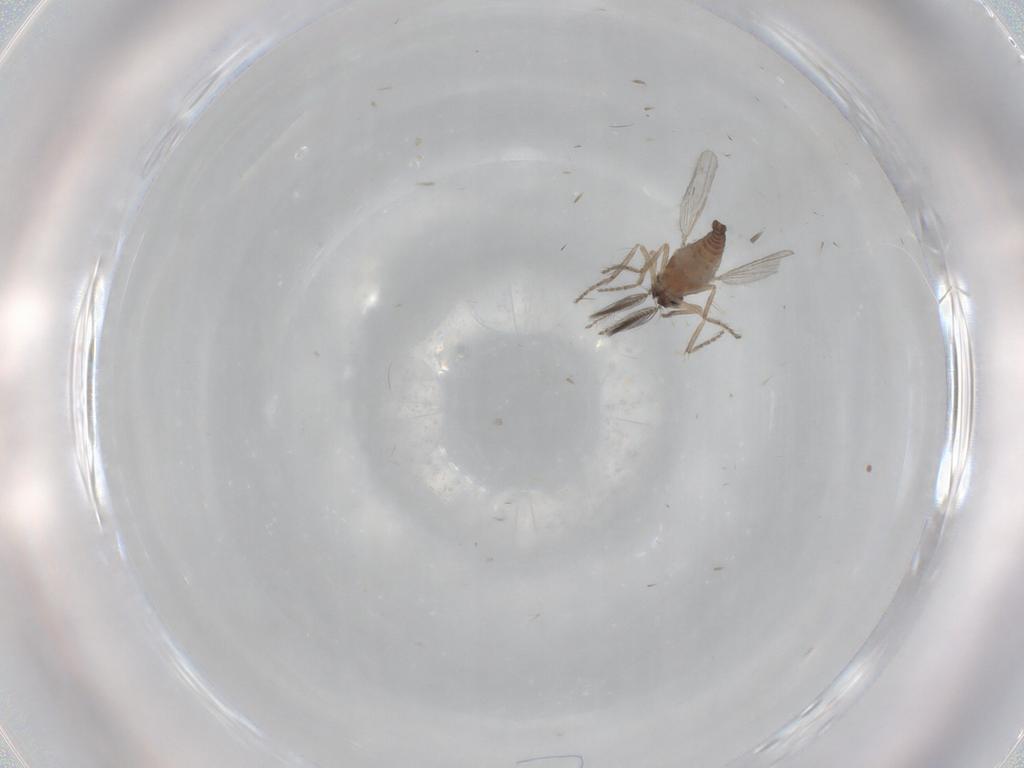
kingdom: Animalia
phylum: Arthropoda
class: Insecta
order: Diptera
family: Ceratopogonidae
